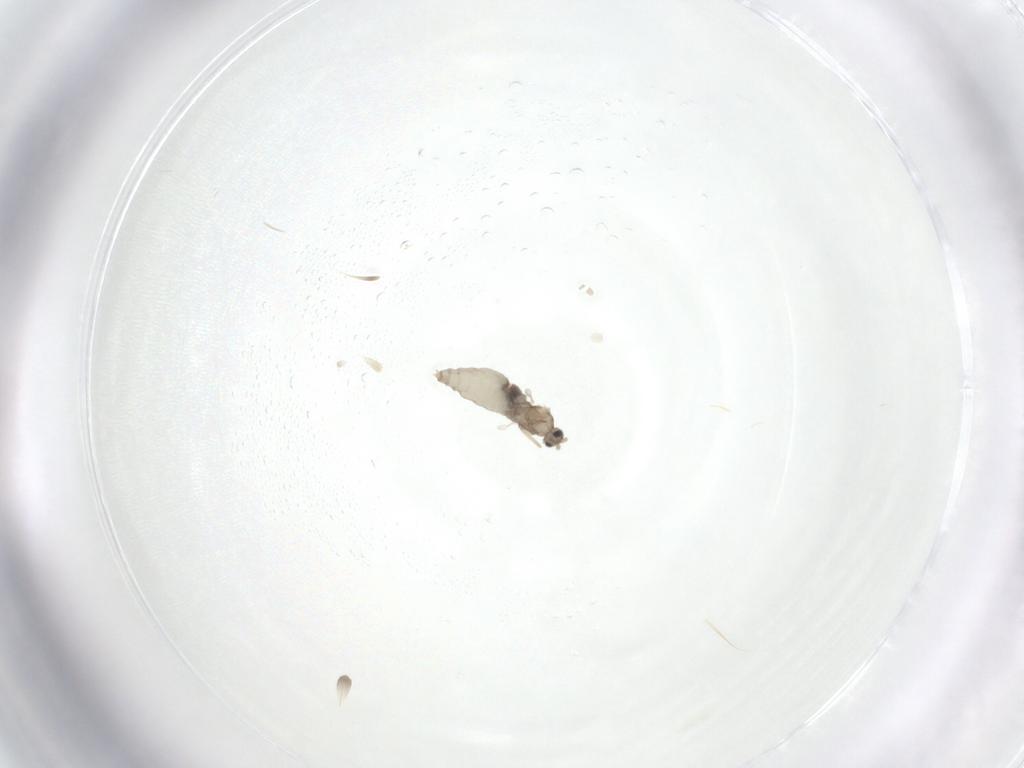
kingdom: Animalia
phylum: Arthropoda
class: Insecta
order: Diptera
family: Cecidomyiidae
